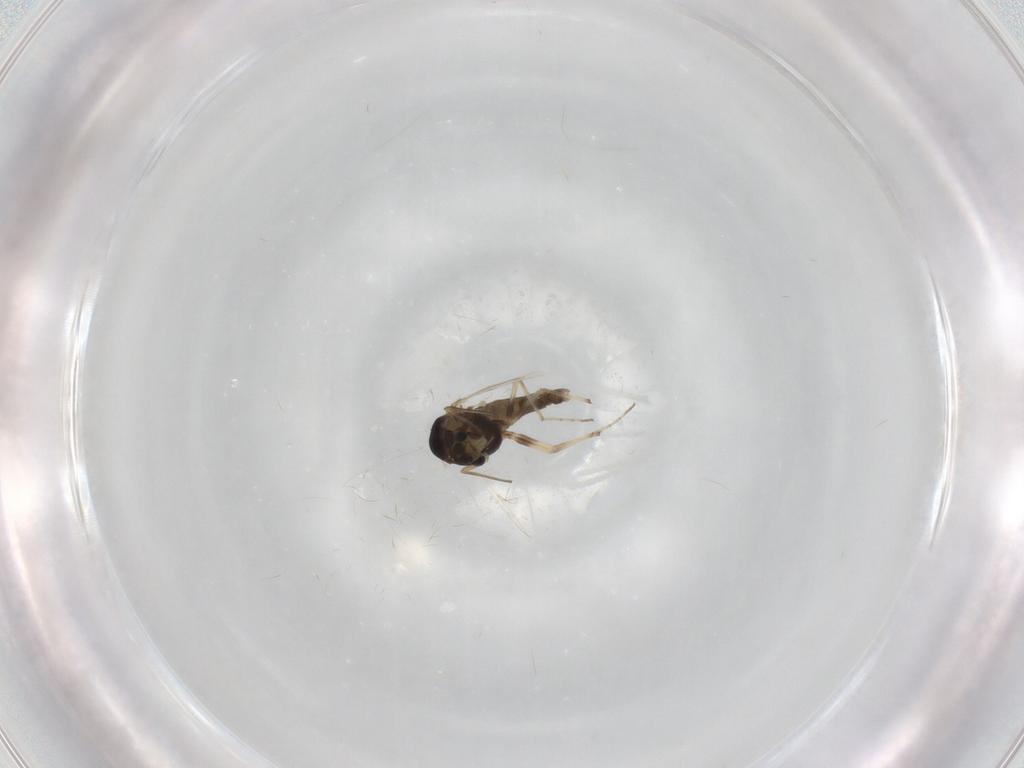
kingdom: Animalia
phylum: Arthropoda
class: Insecta
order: Diptera
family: Chironomidae
